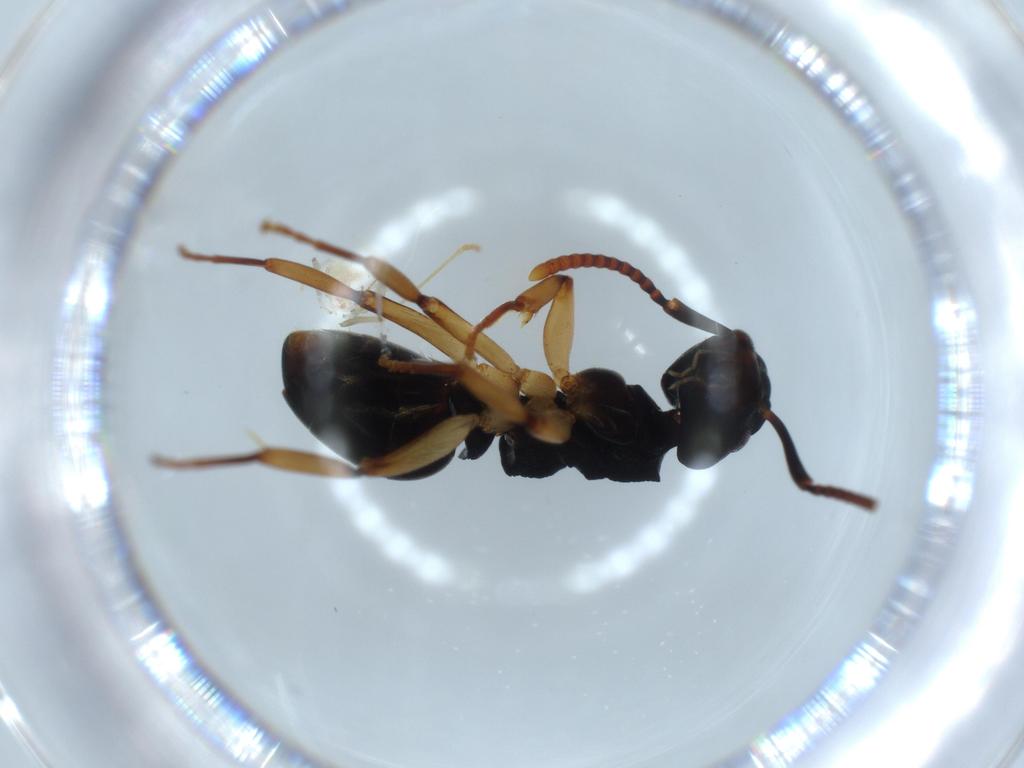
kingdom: Animalia
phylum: Arthropoda
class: Insecta
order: Hymenoptera
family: Formicidae
